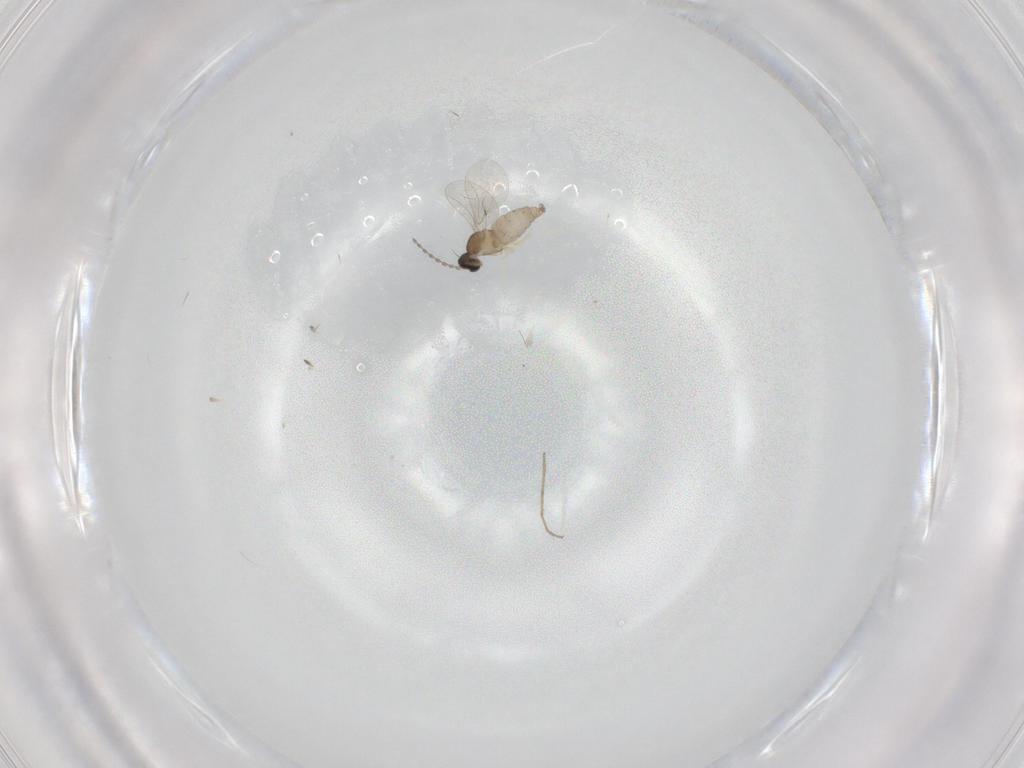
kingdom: Animalia
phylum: Arthropoda
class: Insecta
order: Diptera
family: Cecidomyiidae
